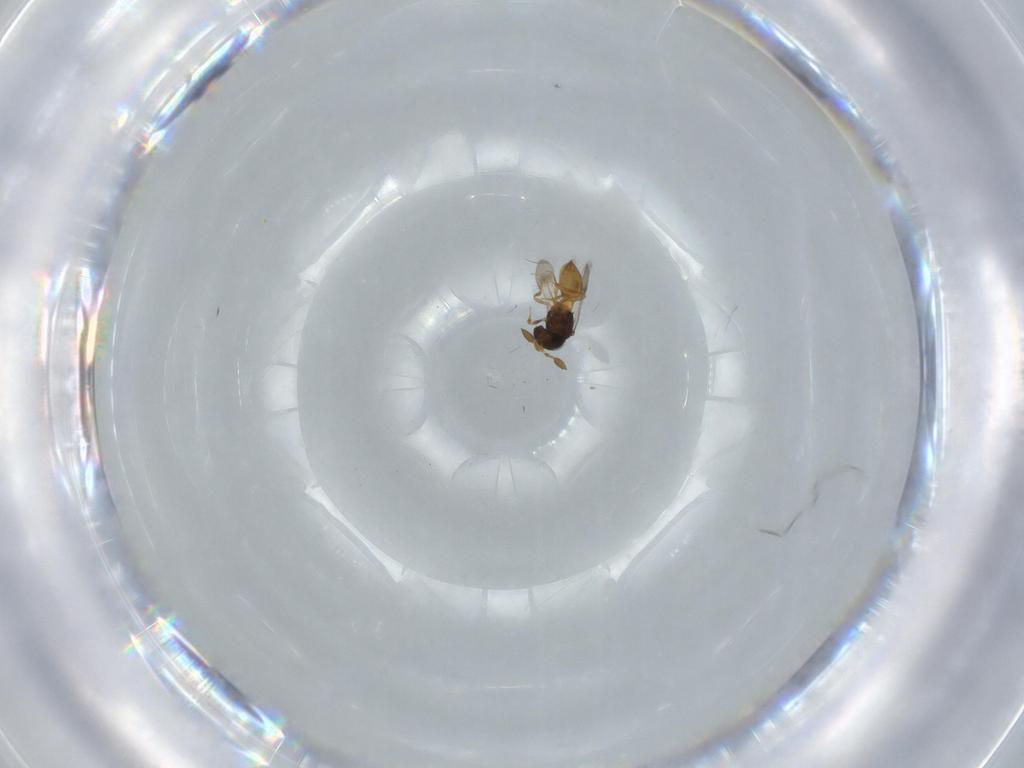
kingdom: Animalia
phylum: Arthropoda
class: Insecta
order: Hymenoptera
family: Scelionidae
